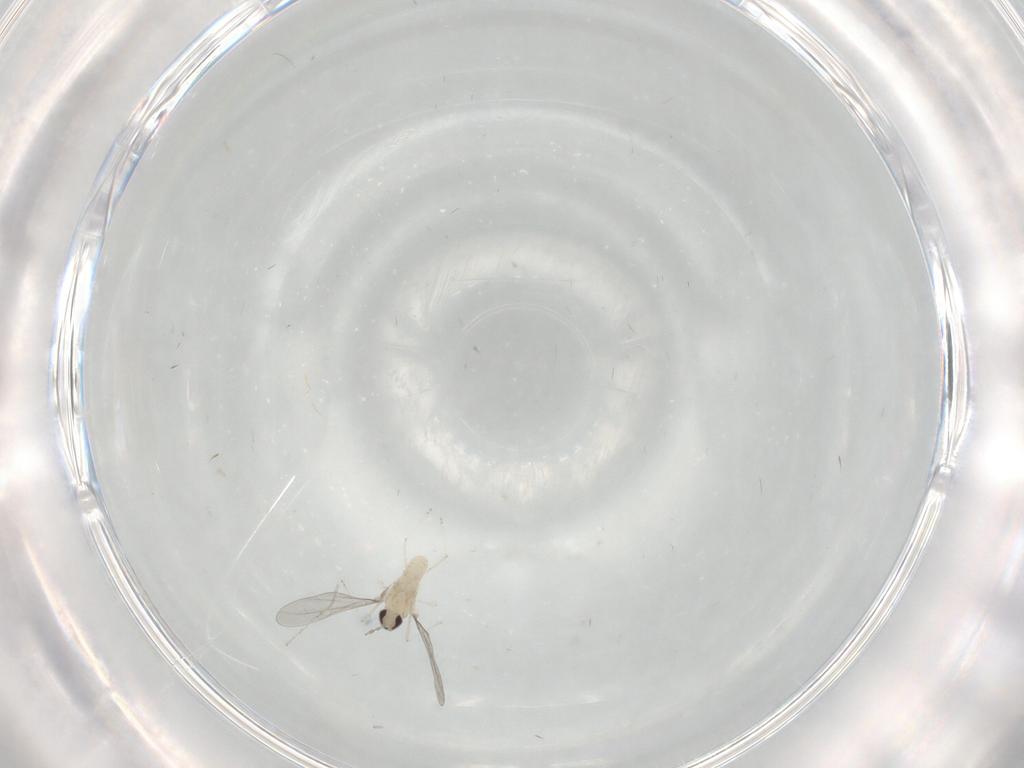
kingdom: Animalia
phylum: Arthropoda
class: Insecta
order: Diptera
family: Cecidomyiidae
